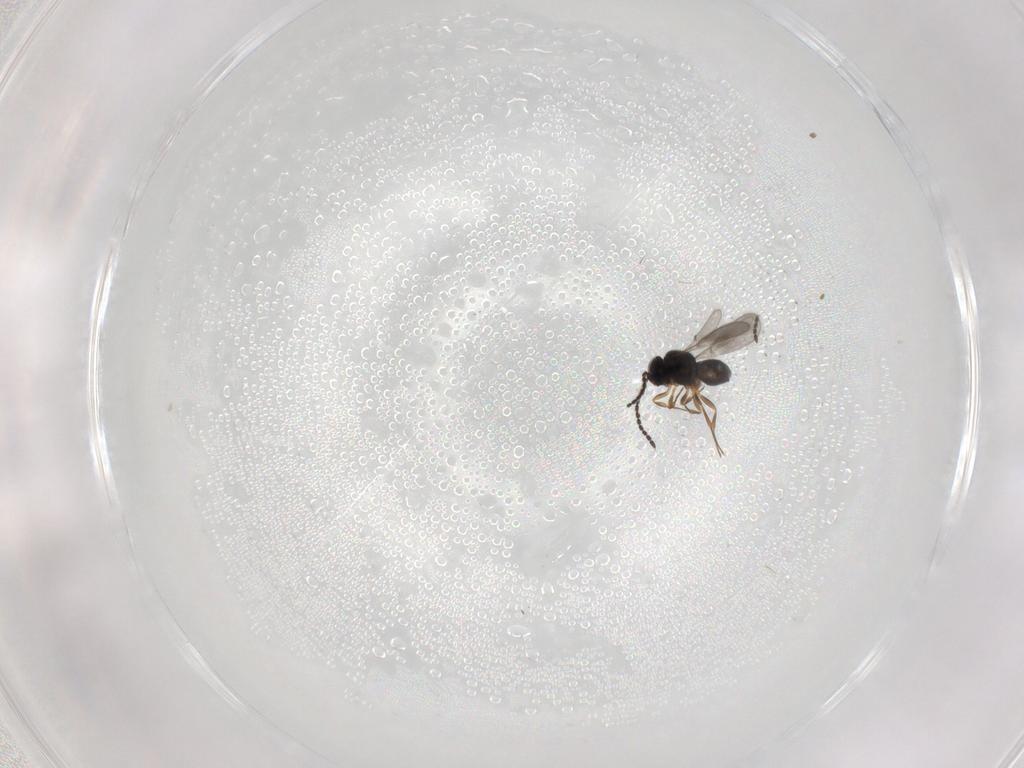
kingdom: Animalia
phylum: Arthropoda
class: Insecta
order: Hymenoptera
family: Scelionidae
